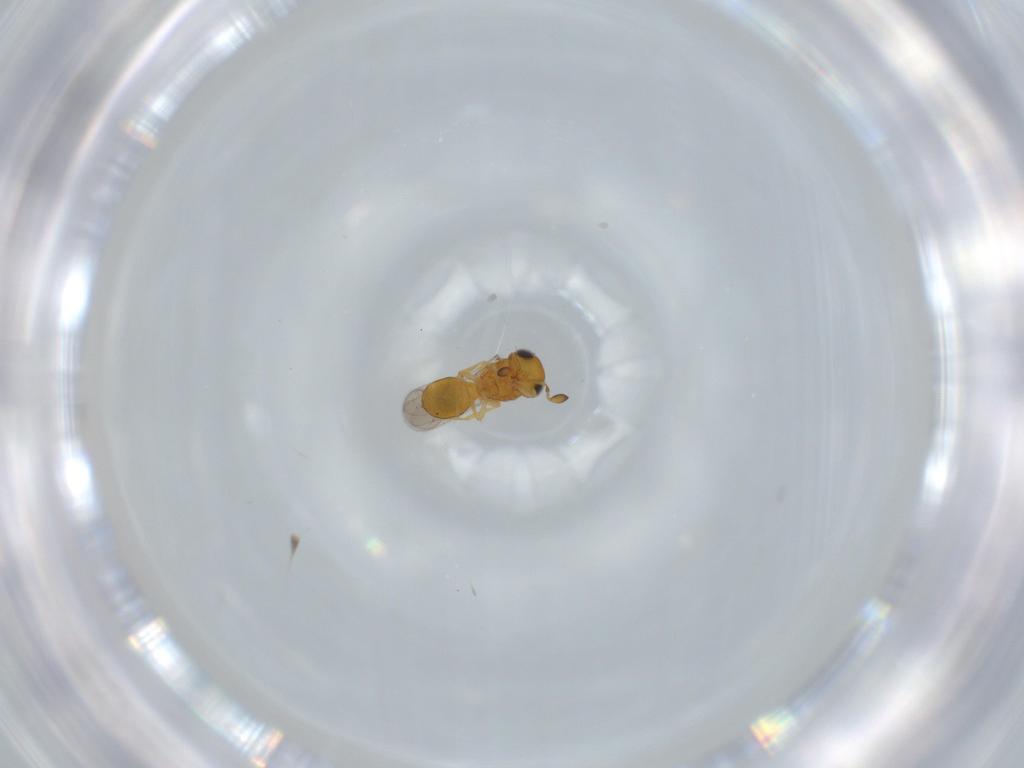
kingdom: Animalia
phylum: Arthropoda
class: Insecta
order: Hymenoptera
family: Scelionidae
